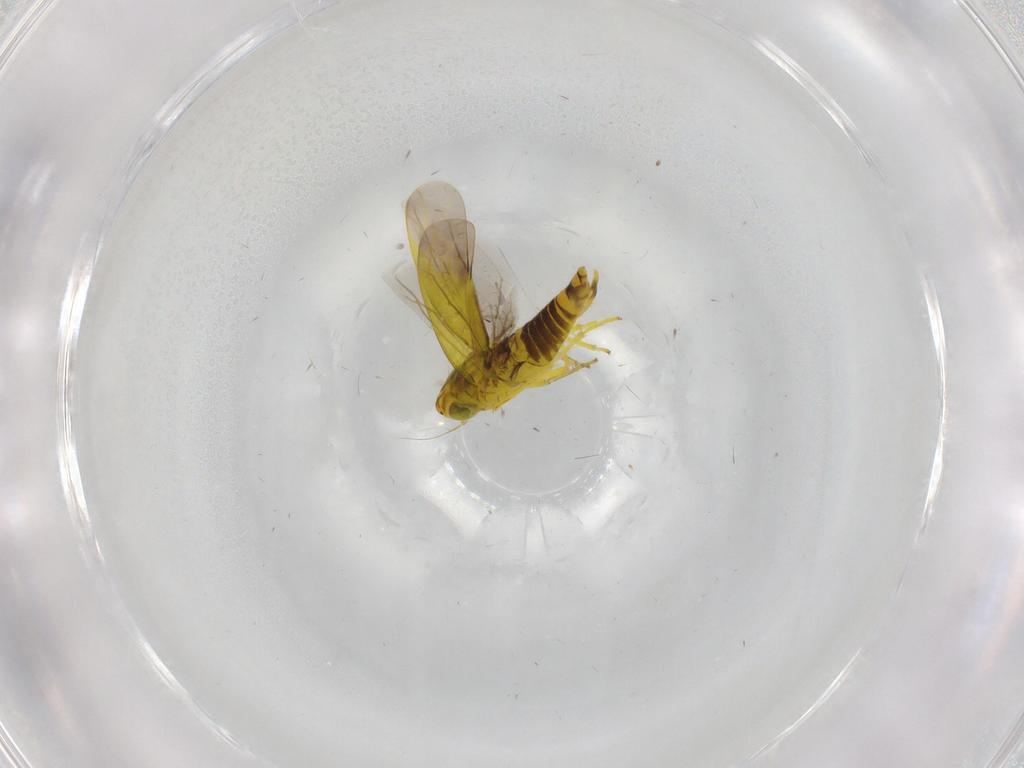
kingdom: Animalia
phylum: Arthropoda
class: Insecta
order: Hemiptera
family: Cicadellidae
